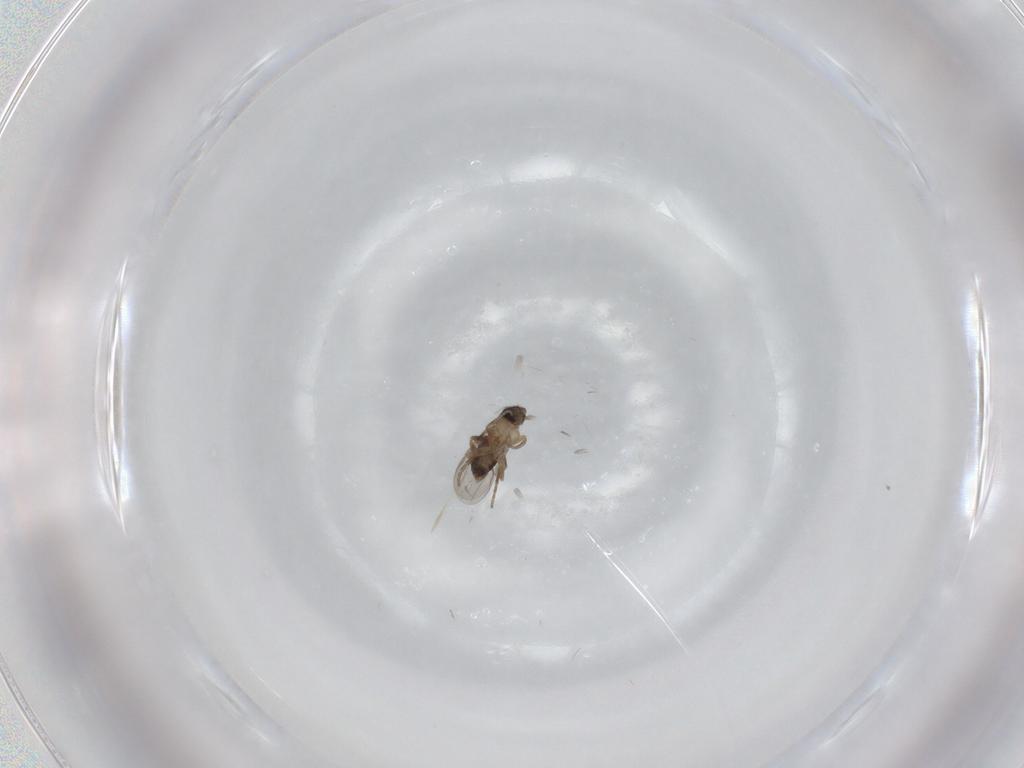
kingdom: Animalia
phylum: Arthropoda
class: Insecta
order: Diptera
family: Phoridae
